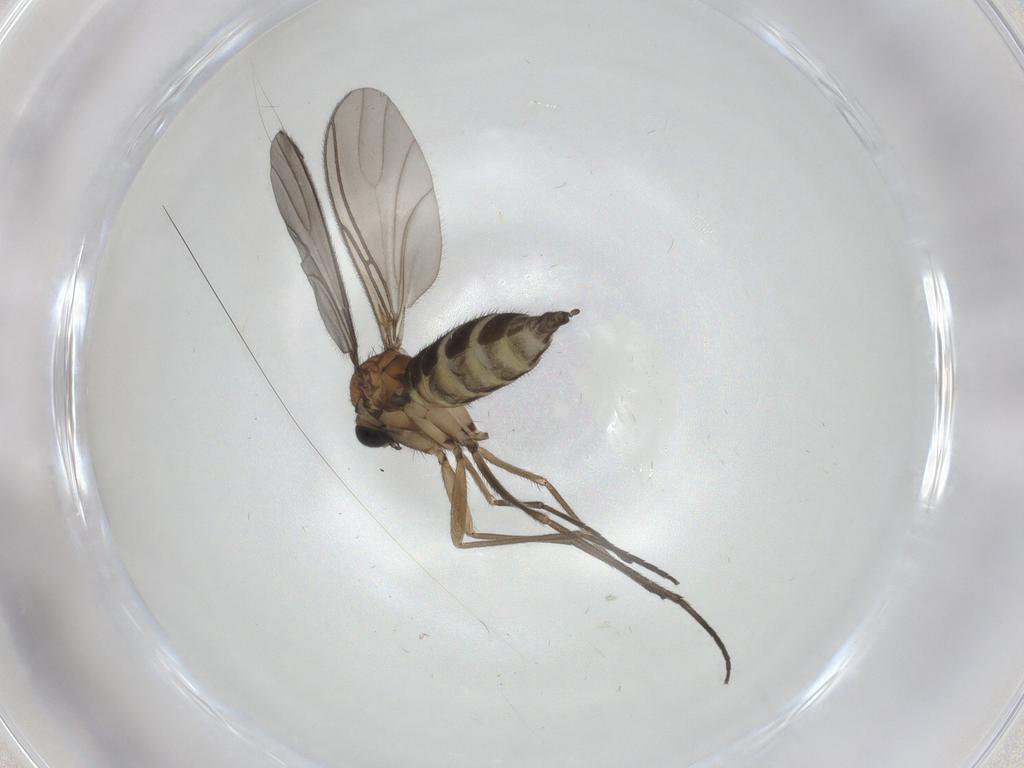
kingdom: Animalia
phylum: Arthropoda
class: Insecta
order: Diptera
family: Sciaridae
